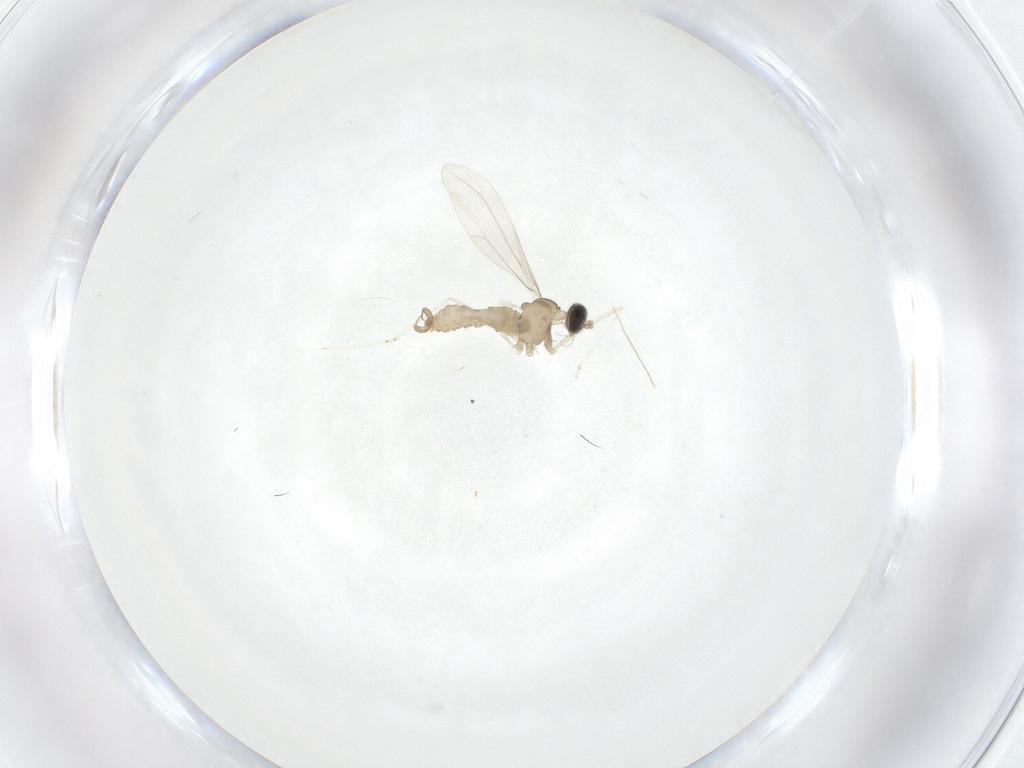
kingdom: Animalia
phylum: Arthropoda
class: Insecta
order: Diptera
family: Cecidomyiidae
